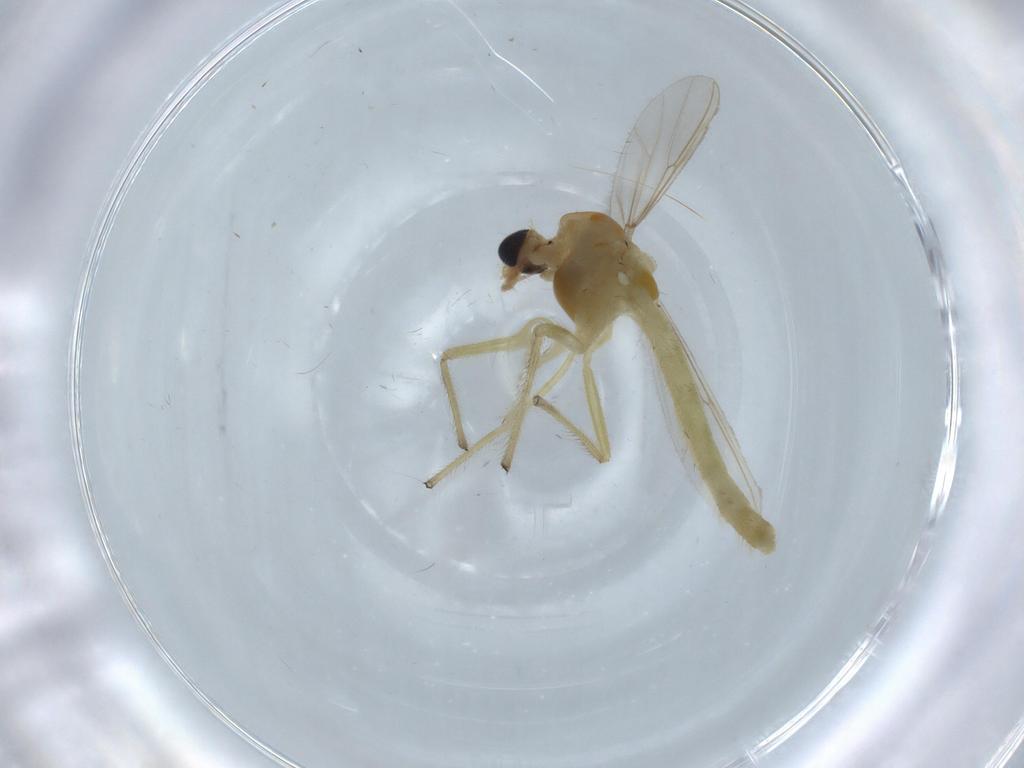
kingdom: Animalia
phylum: Arthropoda
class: Insecta
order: Diptera
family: Chironomidae
